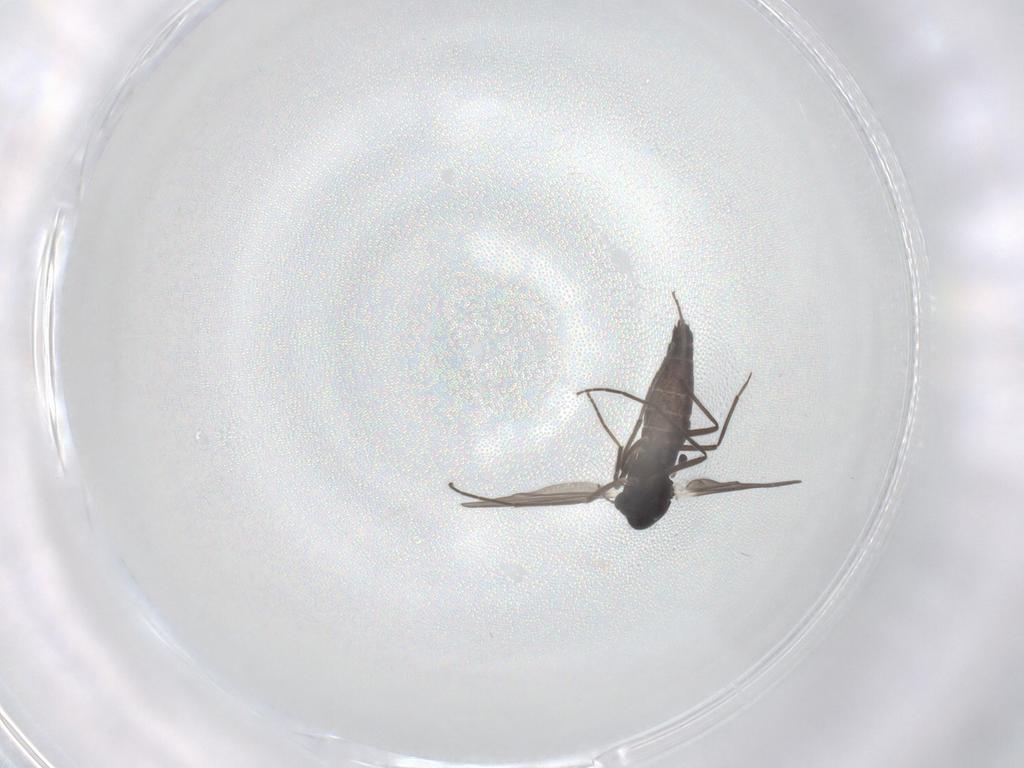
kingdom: Animalia
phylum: Arthropoda
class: Insecta
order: Diptera
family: Chironomidae
